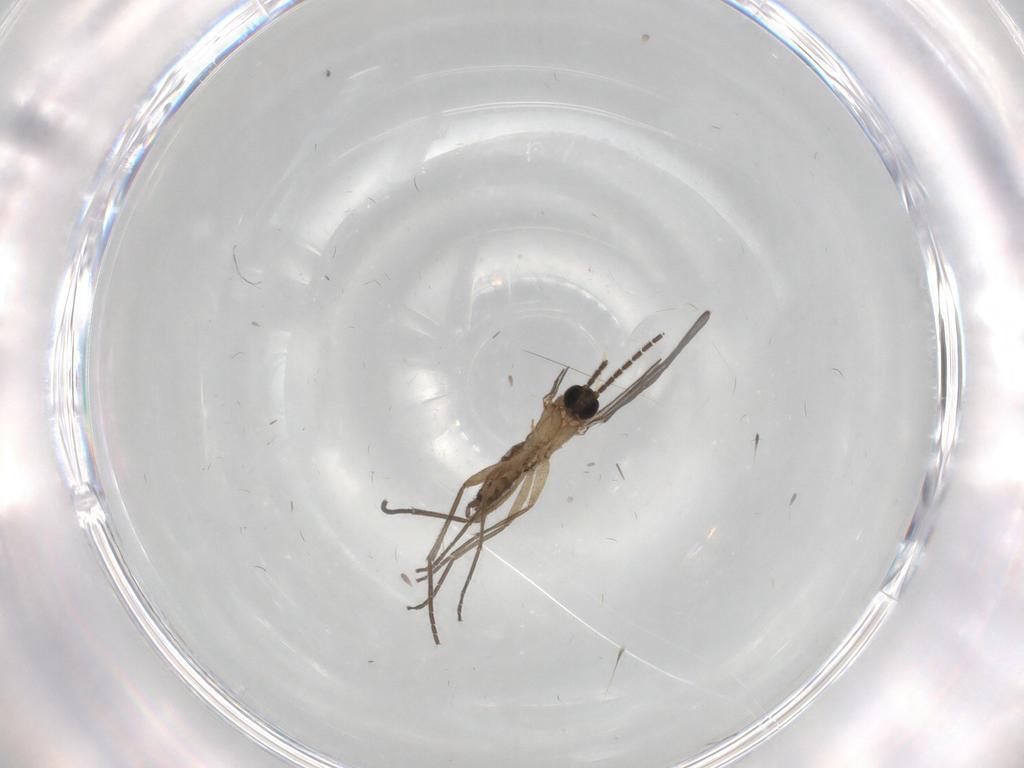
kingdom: Animalia
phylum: Arthropoda
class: Insecta
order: Diptera
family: Sciaridae
